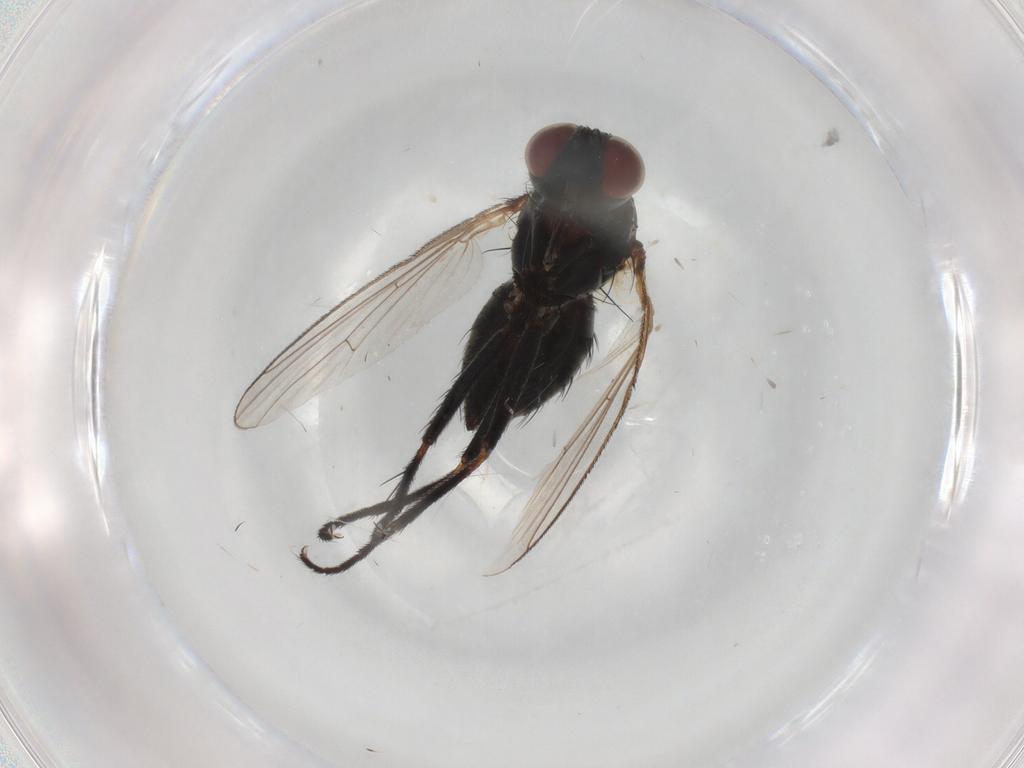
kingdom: Animalia
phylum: Arthropoda
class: Insecta
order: Diptera
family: Muscidae
